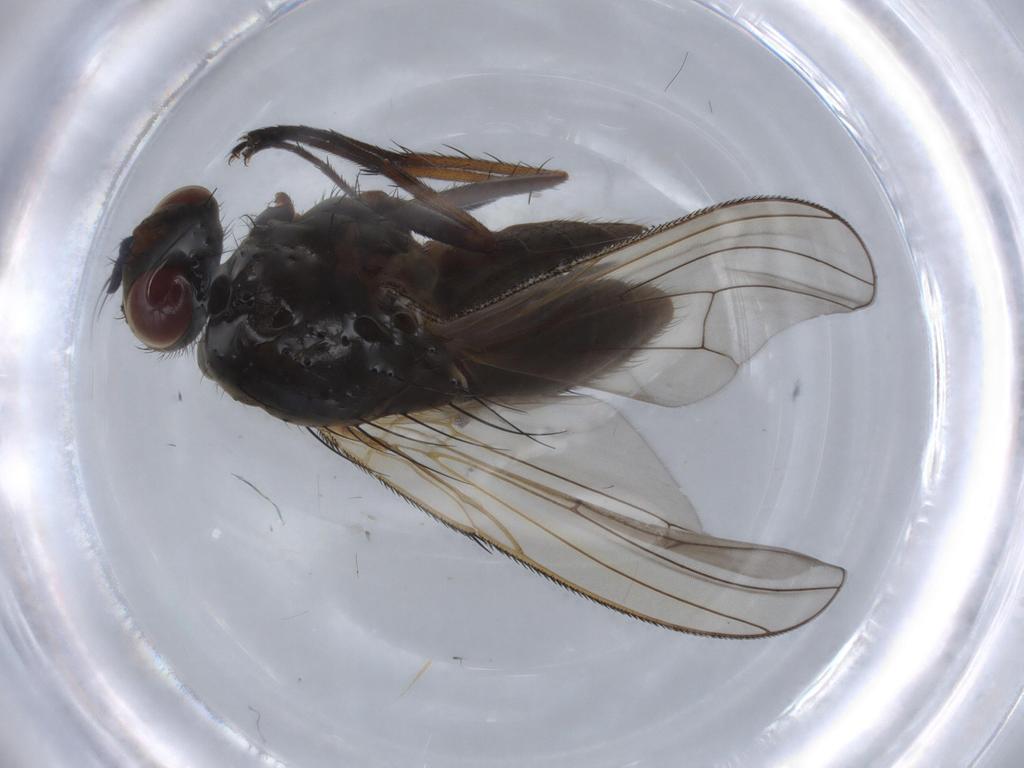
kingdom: Animalia
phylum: Arthropoda
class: Insecta
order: Diptera
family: Anthomyiidae
